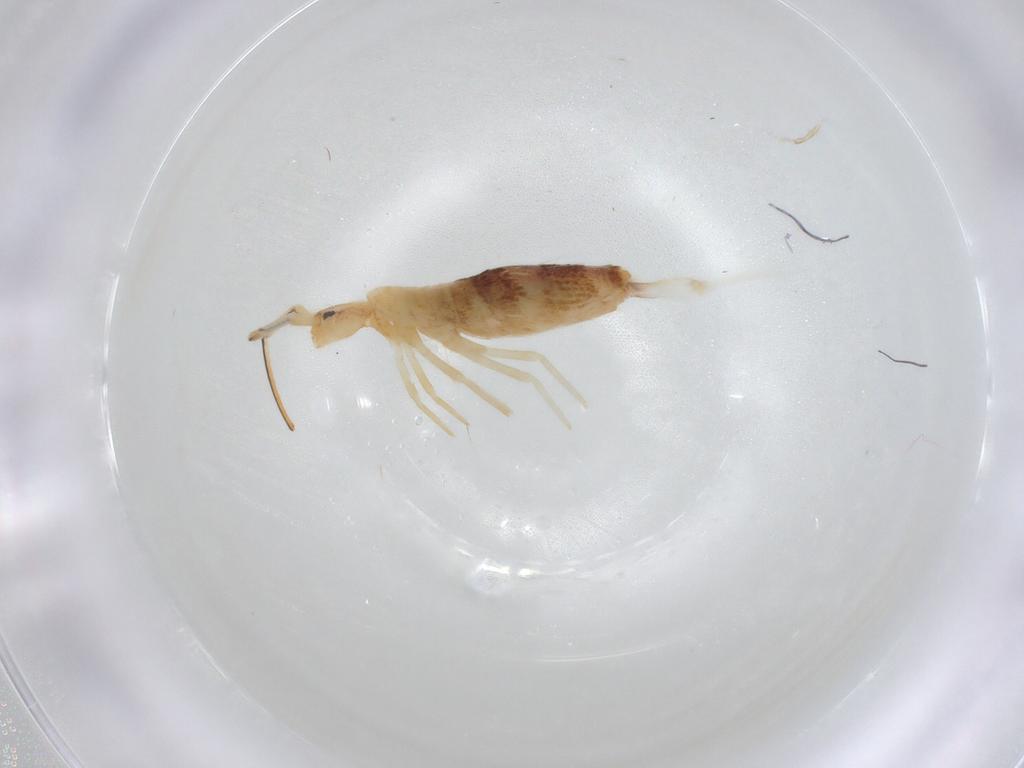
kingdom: Animalia
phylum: Arthropoda
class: Collembola
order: Entomobryomorpha
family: Entomobryidae
